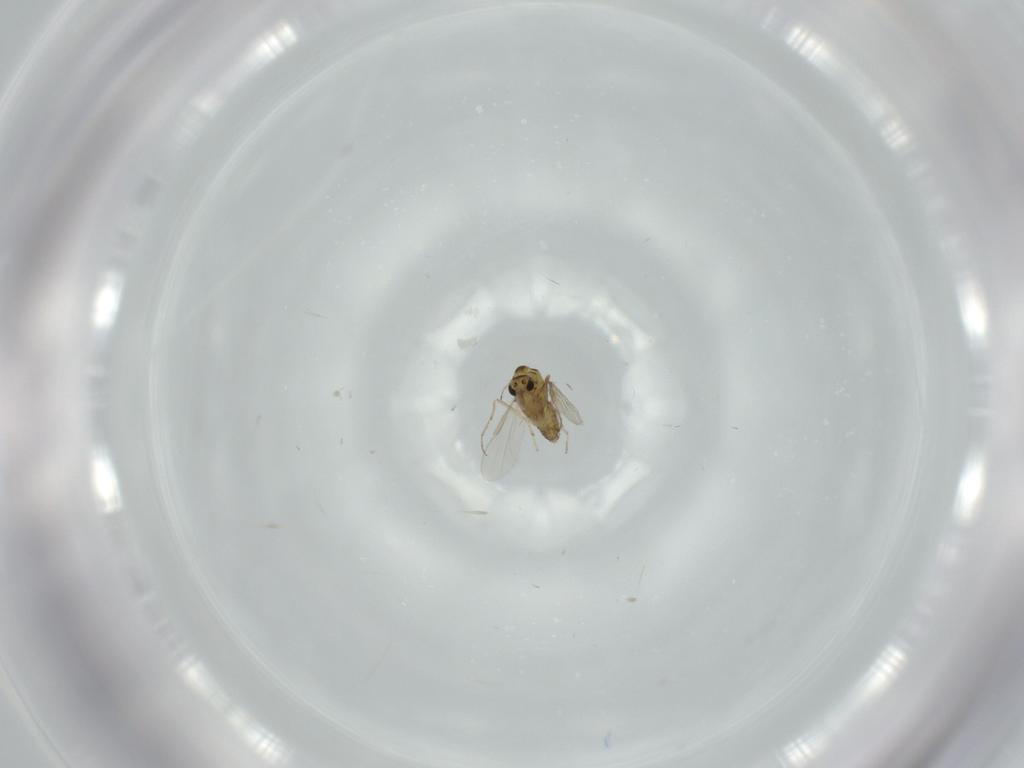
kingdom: Animalia
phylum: Arthropoda
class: Insecta
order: Diptera
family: Chironomidae
